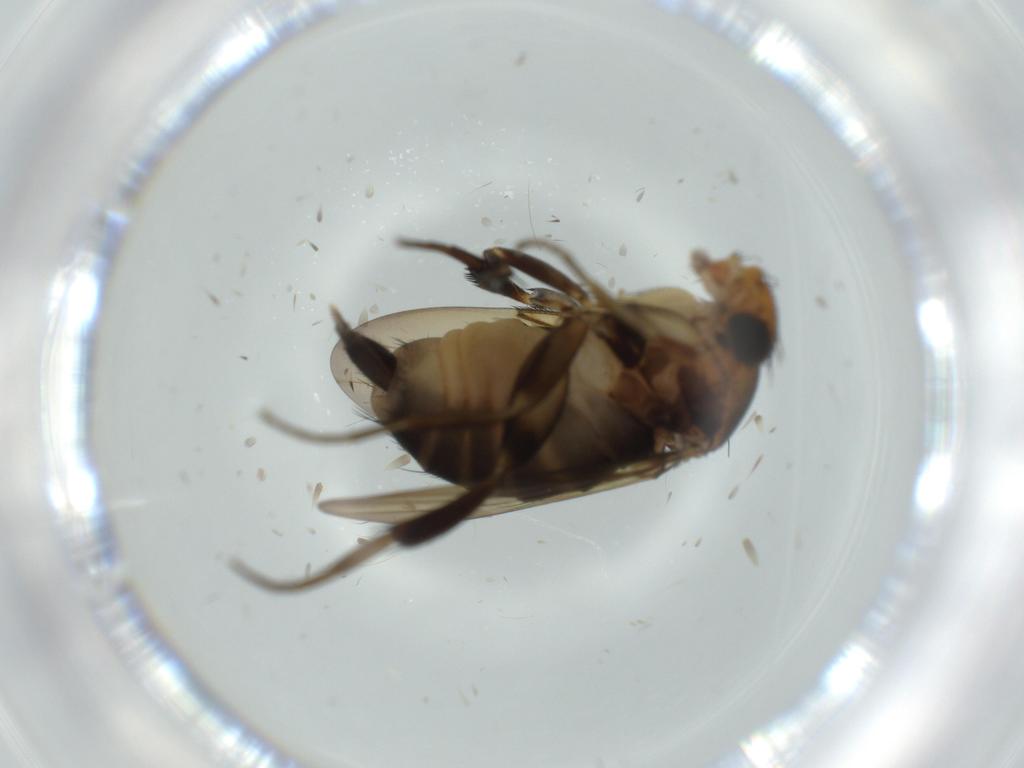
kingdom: Animalia
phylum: Arthropoda
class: Insecta
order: Diptera
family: Phoridae
